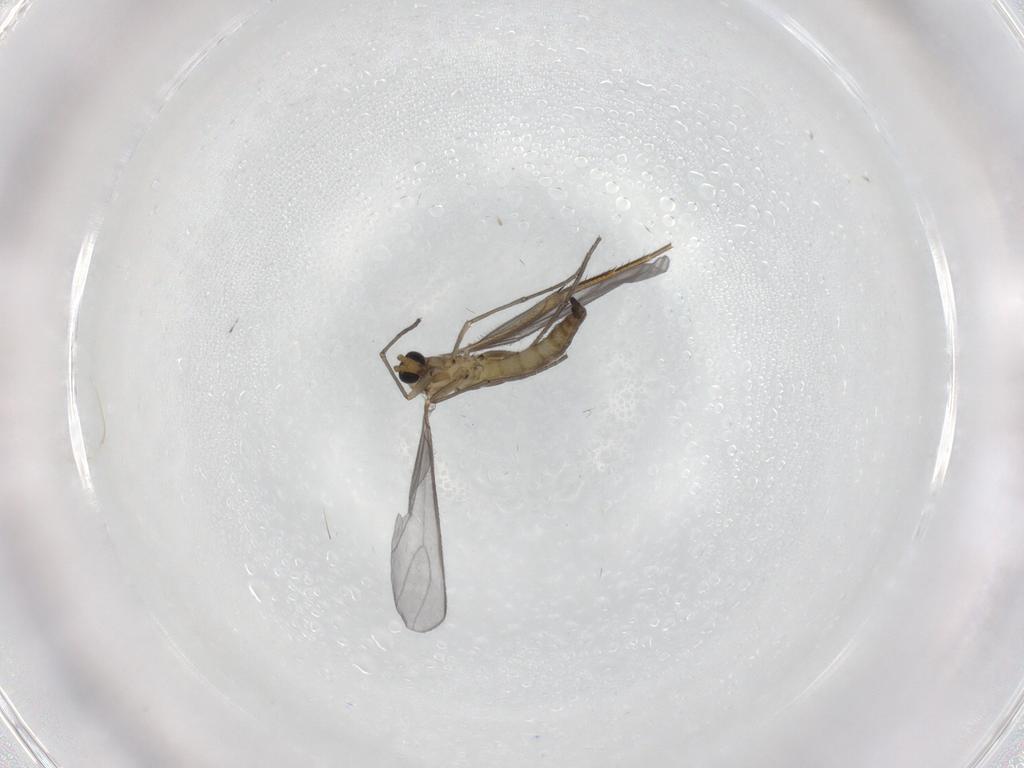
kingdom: Animalia
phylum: Arthropoda
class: Insecta
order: Diptera
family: Sciaridae
